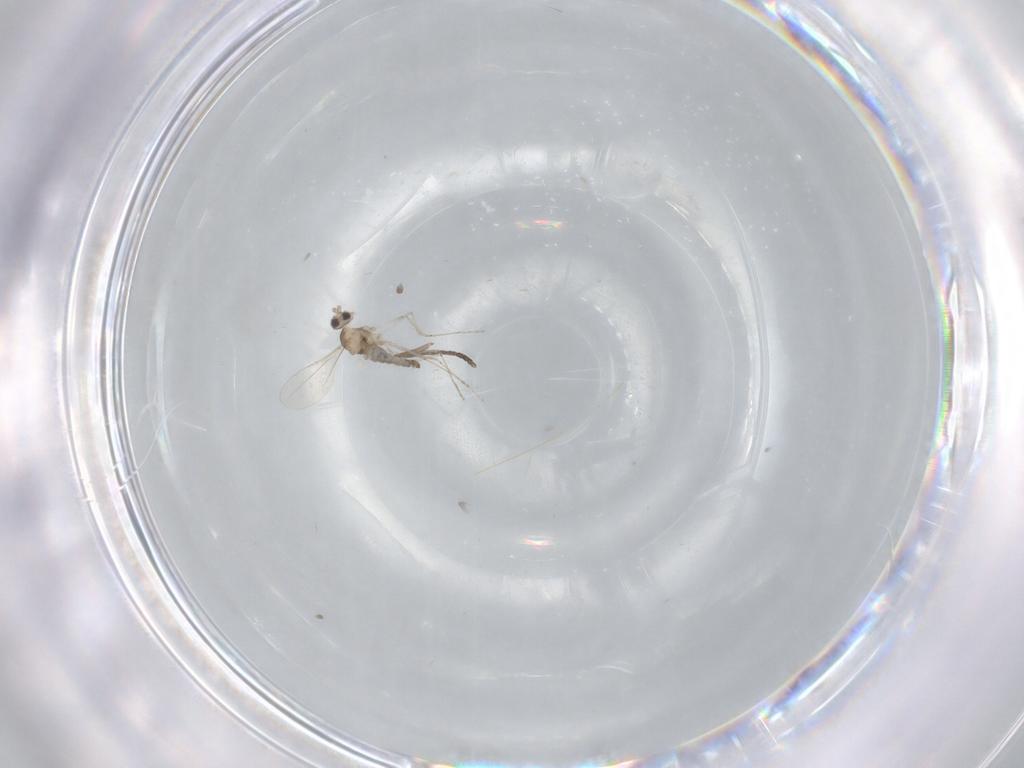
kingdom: Animalia
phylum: Arthropoda
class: Insecta
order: Diptera
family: Cecidomyiidae
